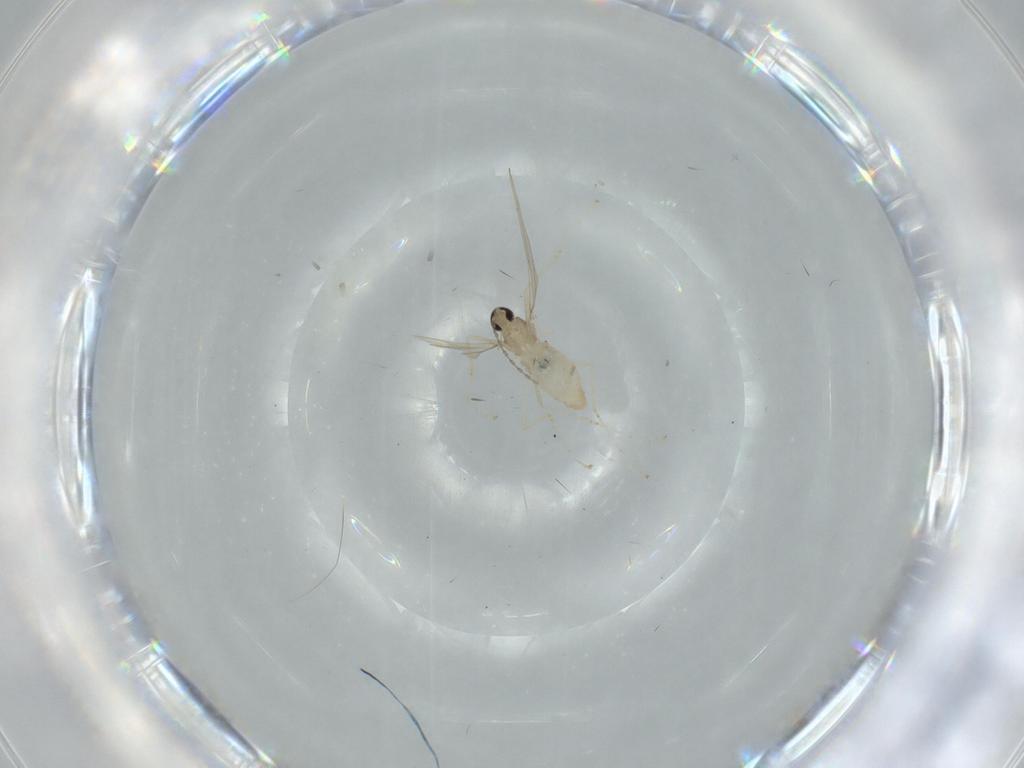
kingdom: Animalia
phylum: Arthropoda
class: Insecta
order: Diptera
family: Cecidomyiidae
